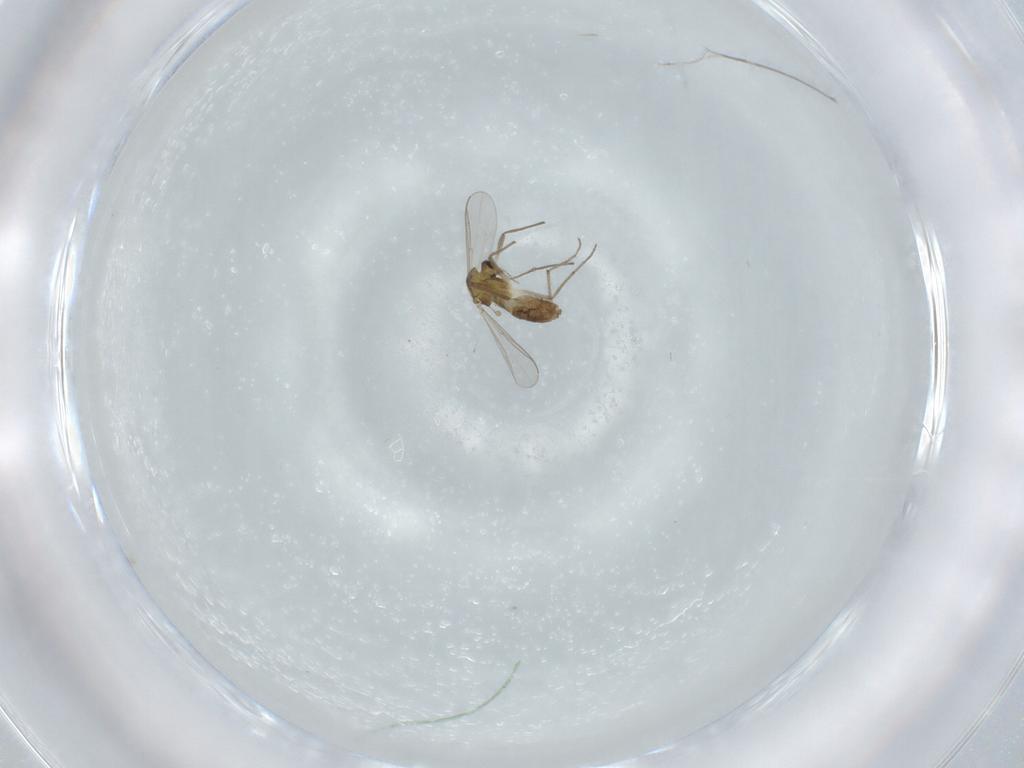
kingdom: Animalia
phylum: Arthropoda
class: Insecta
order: Diptera
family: Chironomidae
